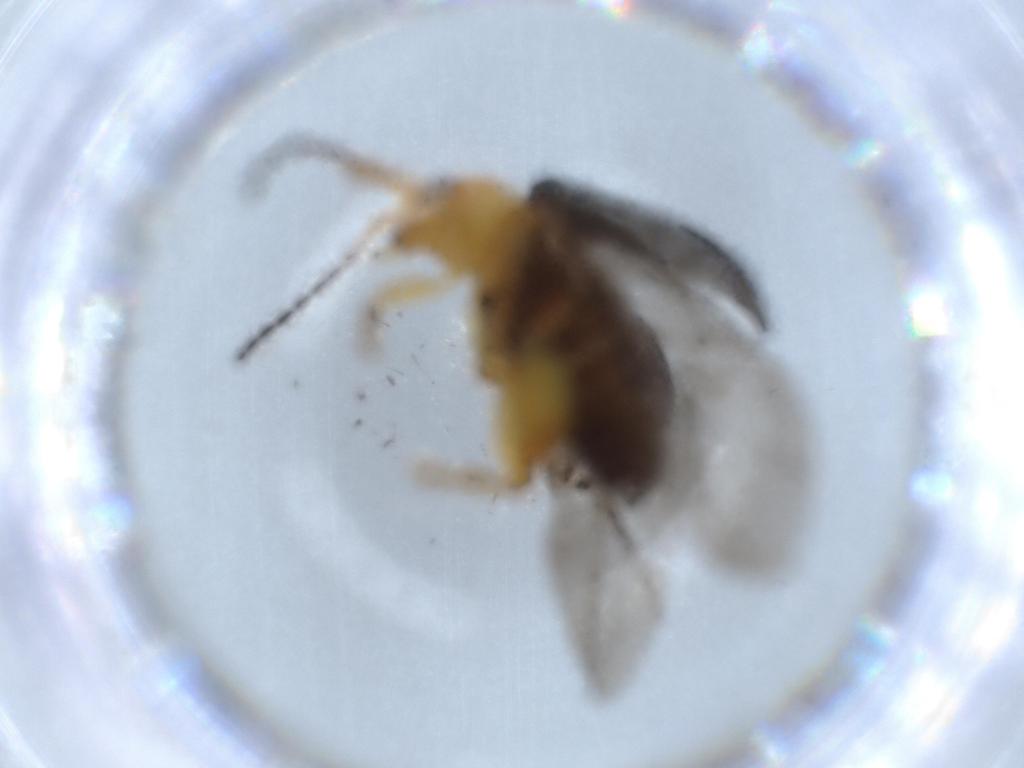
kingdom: Animalia
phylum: Arthropoda
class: Insecta
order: Coleoptera
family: Chrysomelidae
